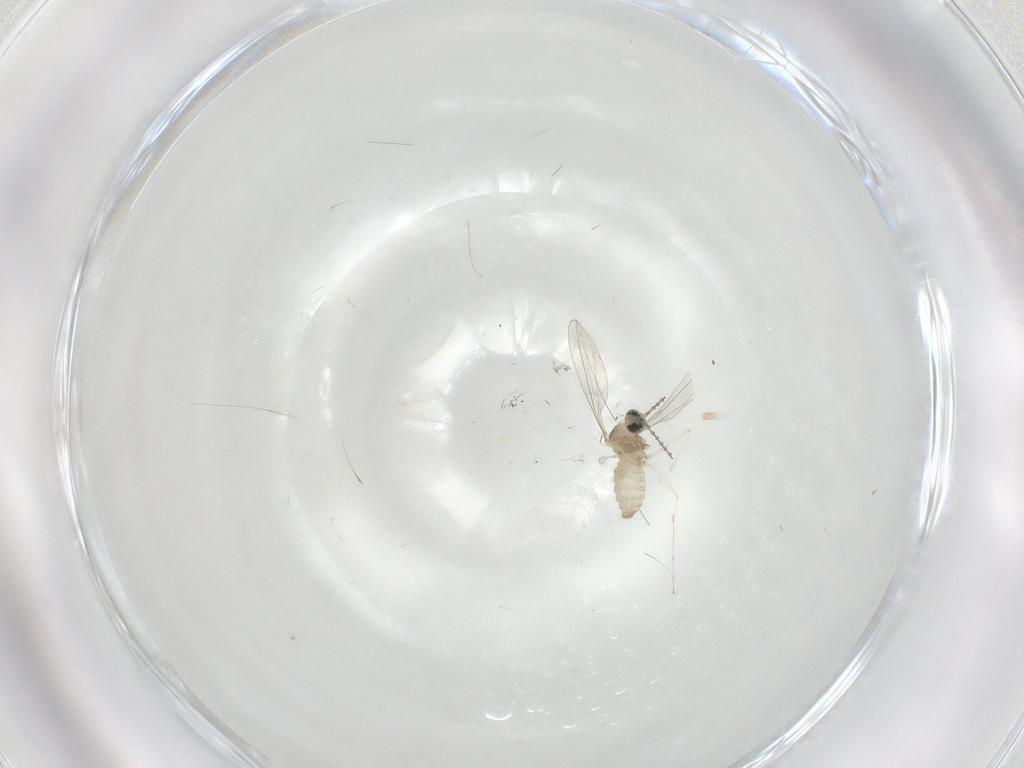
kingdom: Animalia
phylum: Arthropoda
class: Insecta
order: Diptera
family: Cecidomyiidae
